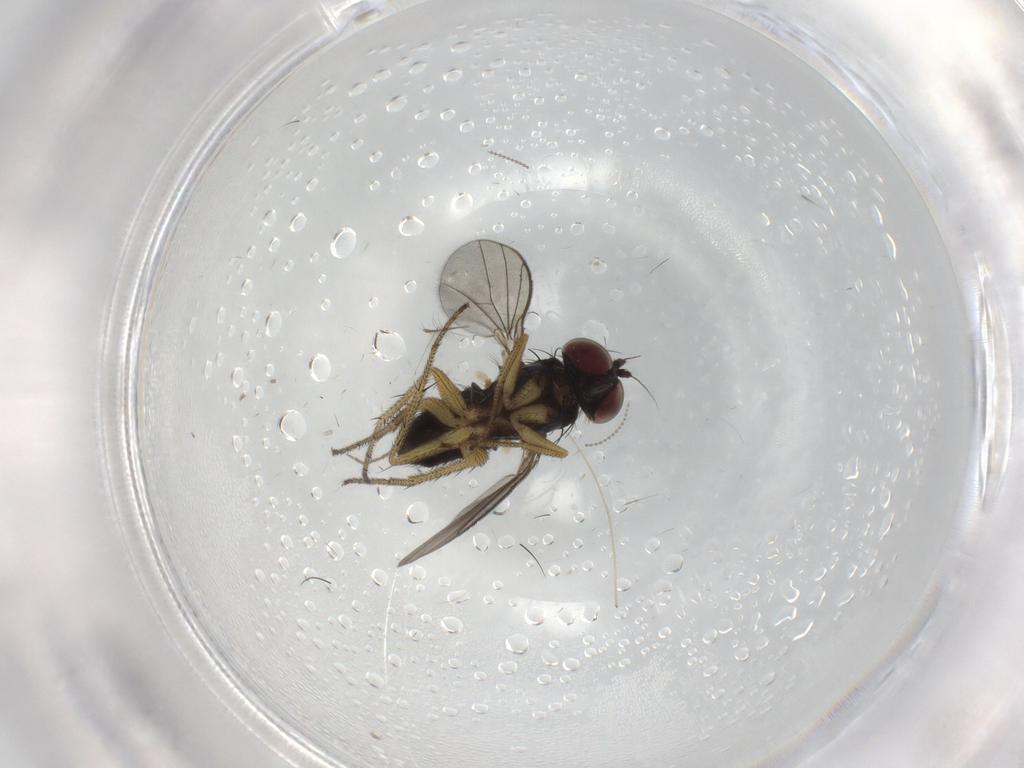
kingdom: Animalia
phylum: Arthropoda
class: Insecta
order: Diptera
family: Chironomidae
